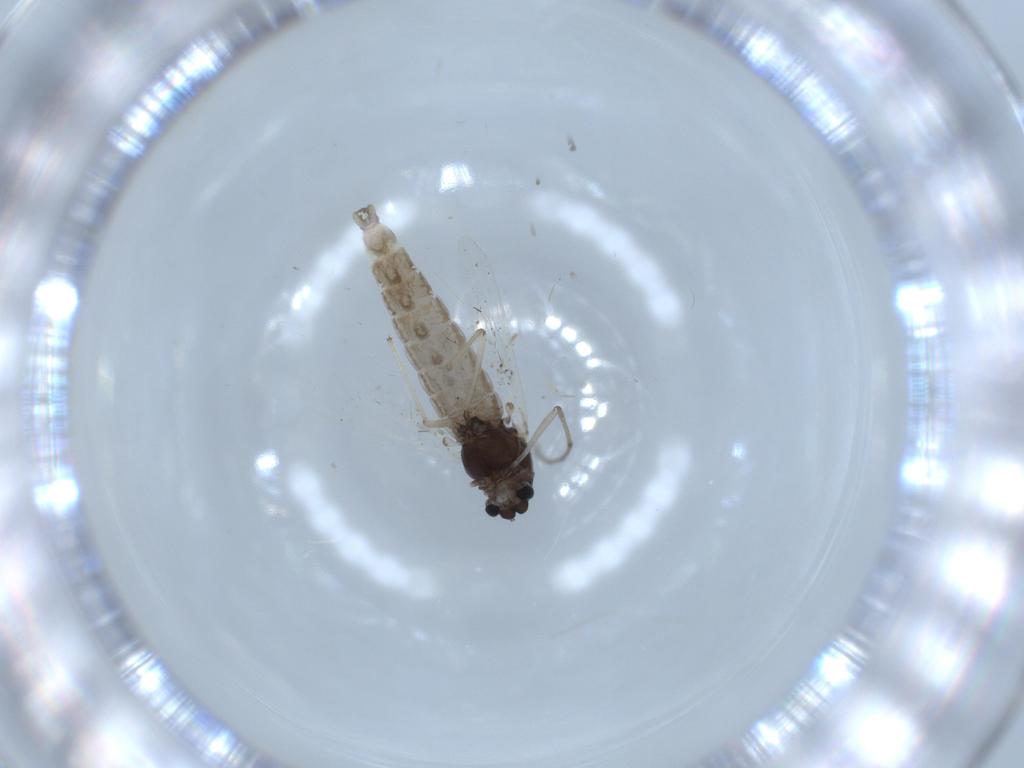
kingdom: Animalia
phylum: Arthropoda
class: Insecta
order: Diptera
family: Chironomidae
